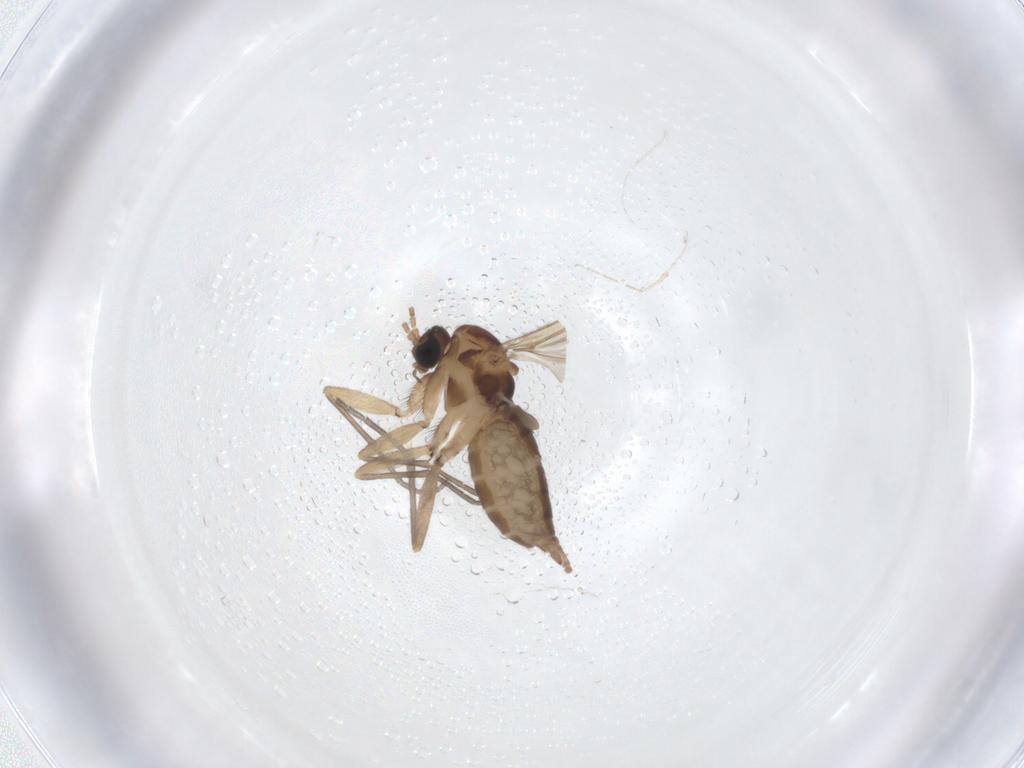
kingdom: Animalia
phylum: Arthropoda
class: Insecta
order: Diptera
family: Sciaridae
